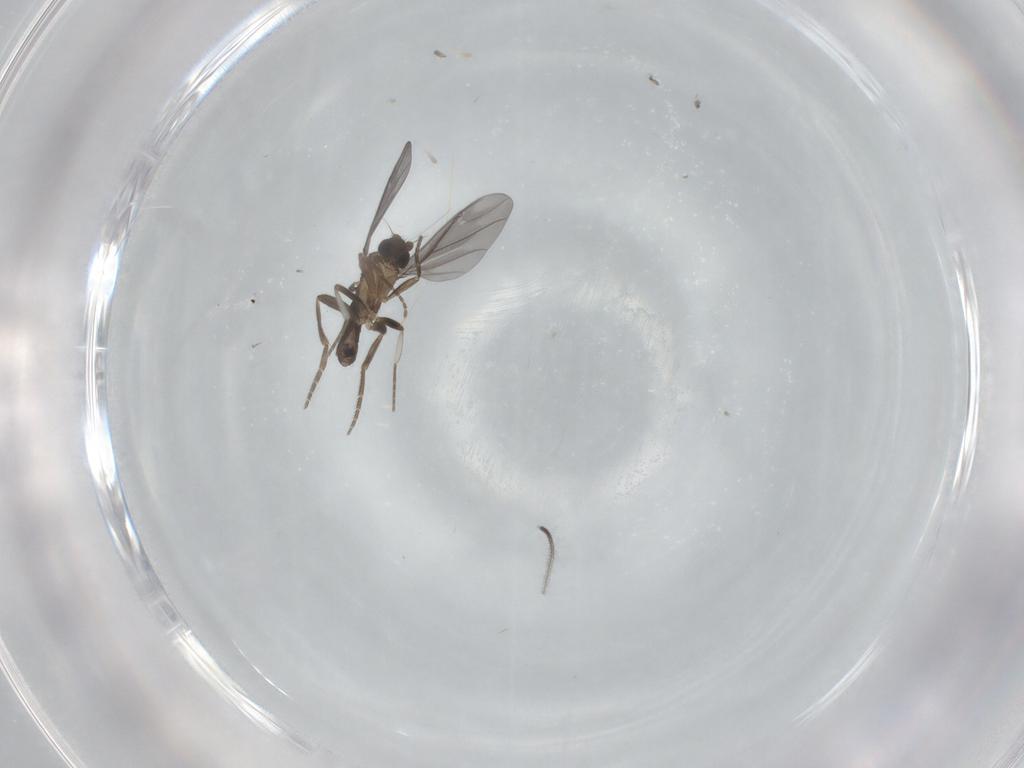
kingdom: Animalia
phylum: Arthropoda
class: Insecta
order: Diptera
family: Phoridae
